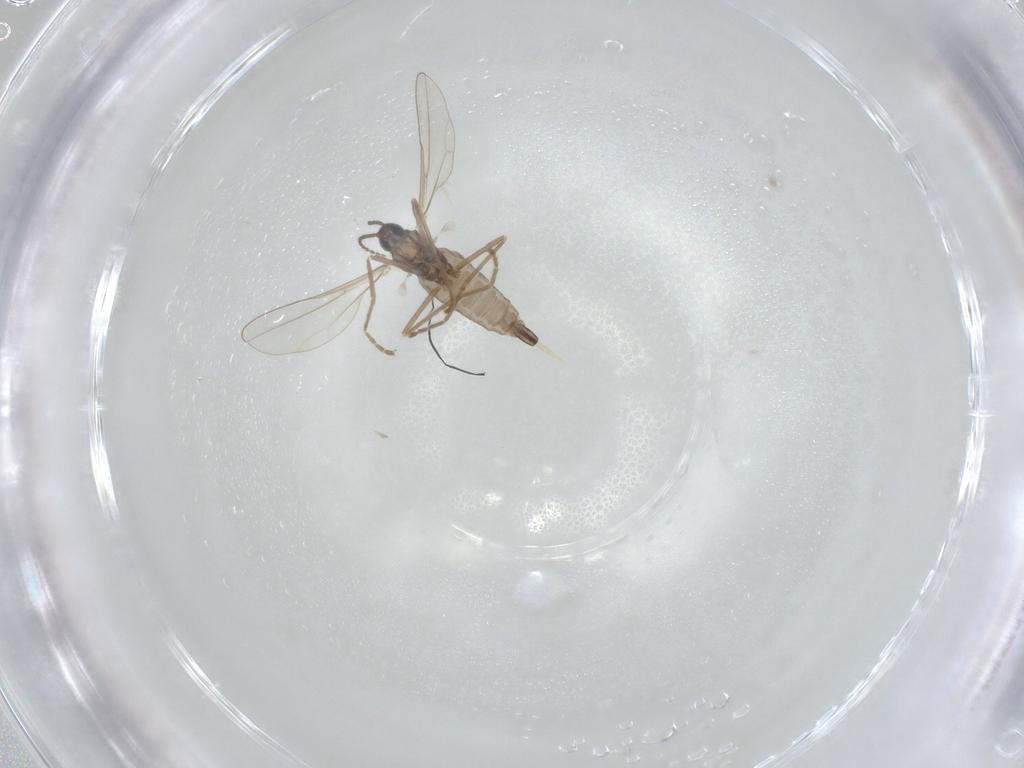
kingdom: Animalia
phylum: Arthropoda
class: Insecta
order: Diptera
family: Cecidomyiidae
